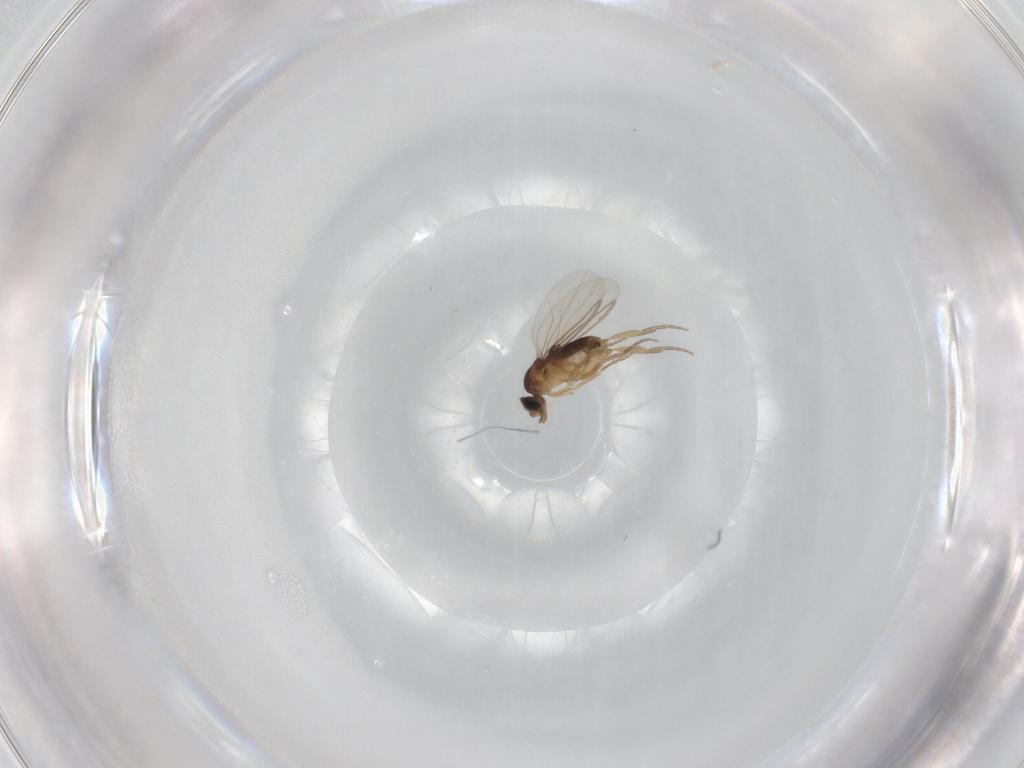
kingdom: Animalia
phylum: Arthropoda
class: Insecta
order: Diptera
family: Phoridae
